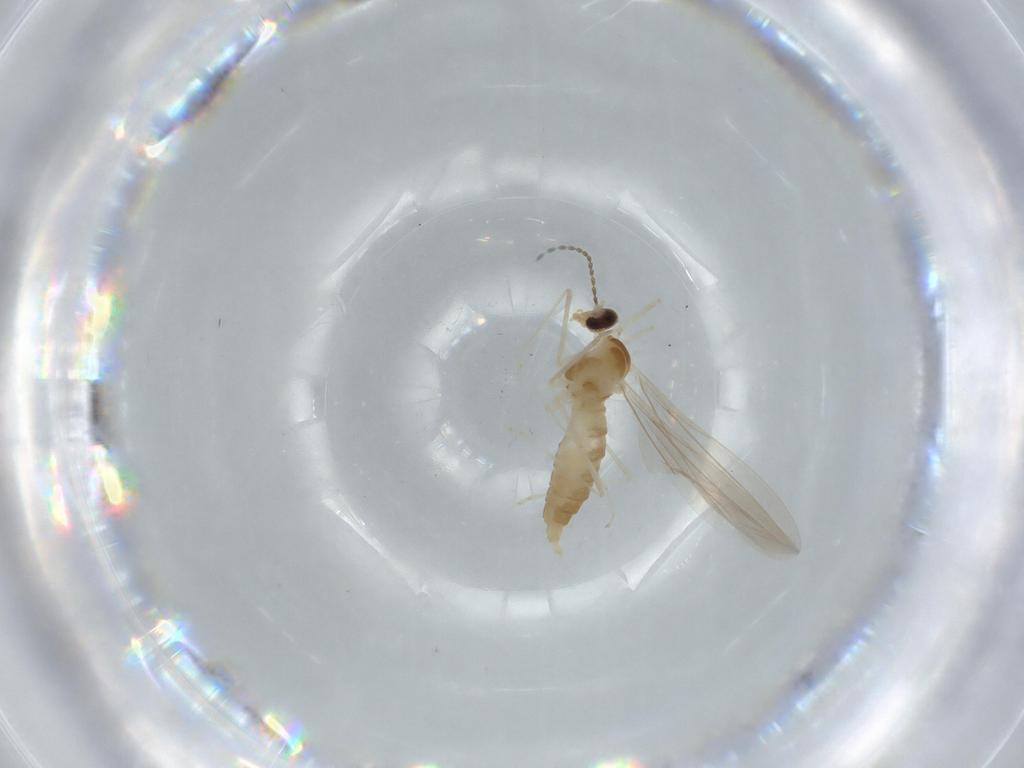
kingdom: Animalia
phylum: Arthropoda
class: Insecta
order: Diptera
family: Cecidomyiidae
